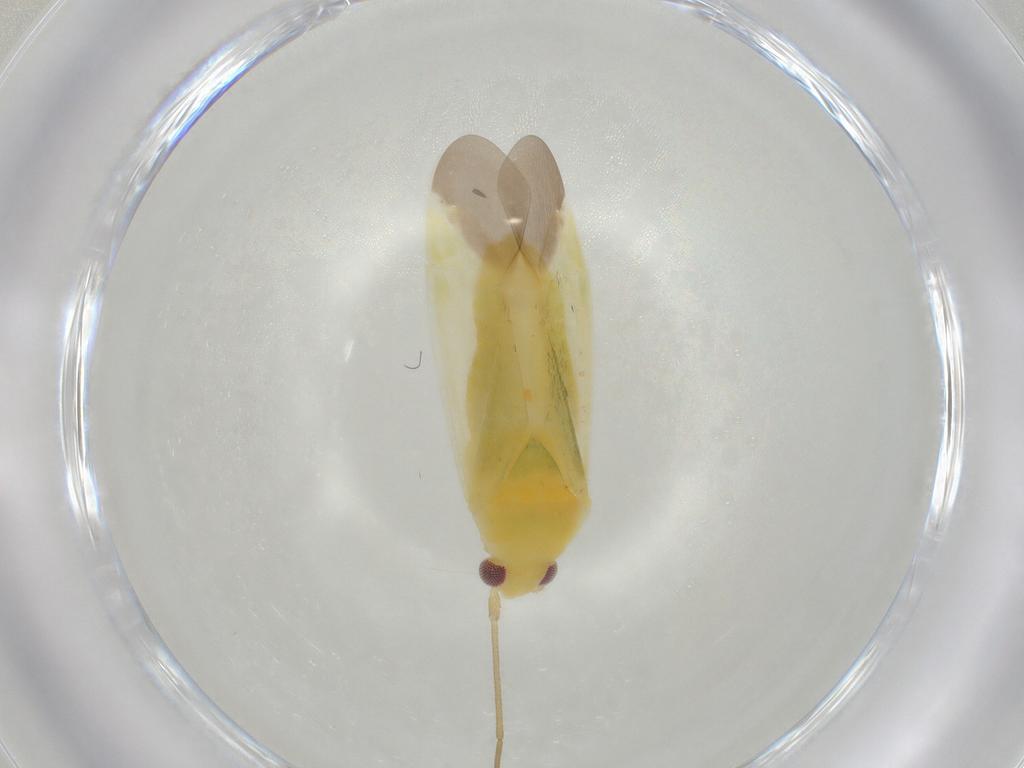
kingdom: Animalia
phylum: Arthropoda
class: Insecta
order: Hemiptera
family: Miridae
